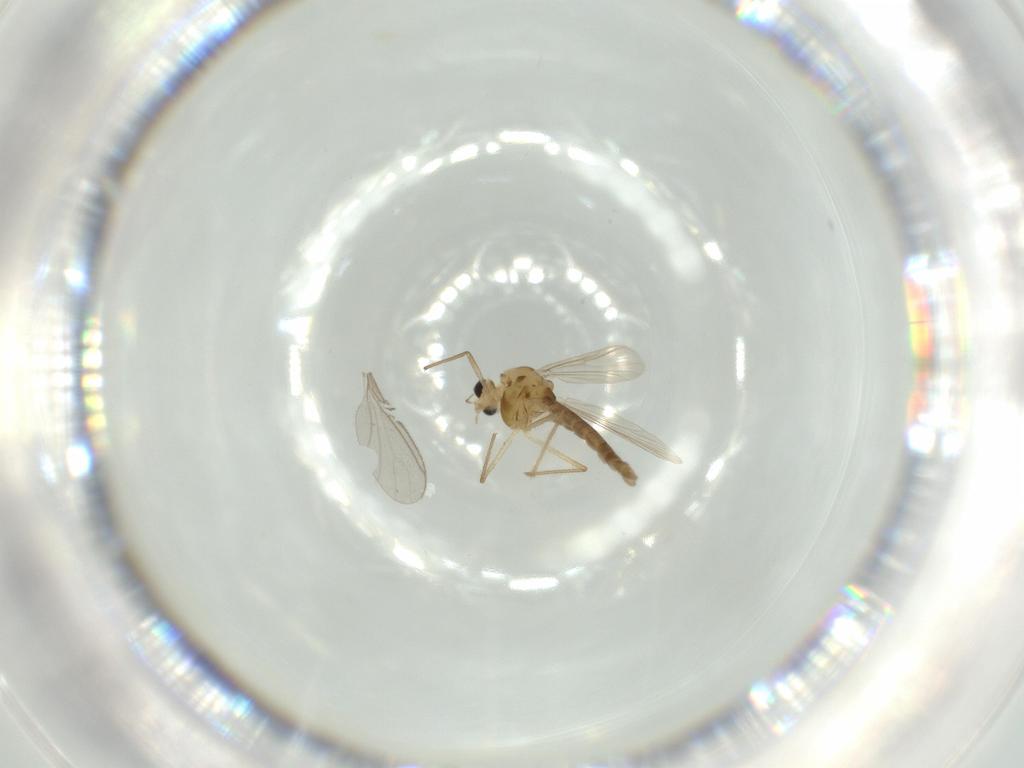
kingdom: Animalia
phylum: Arthropoda
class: Insecta
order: Diptera
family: Chironomidae
